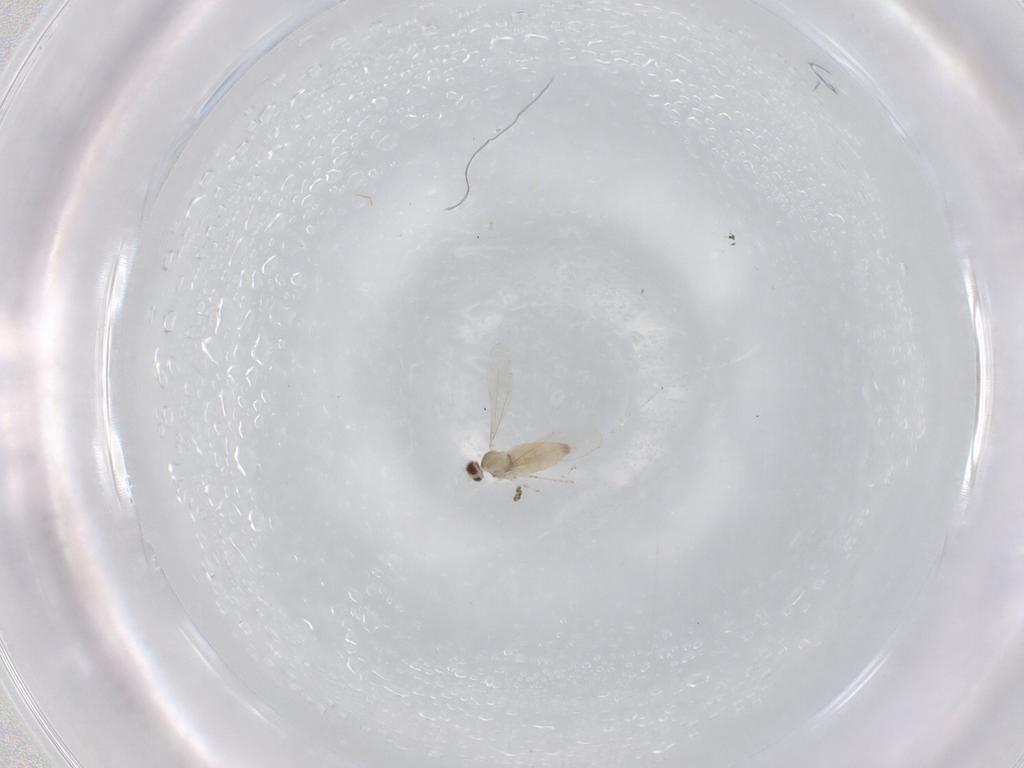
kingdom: Animalia
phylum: Arthropoda
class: Insecta
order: Diptera
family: Cecidomyiidae
